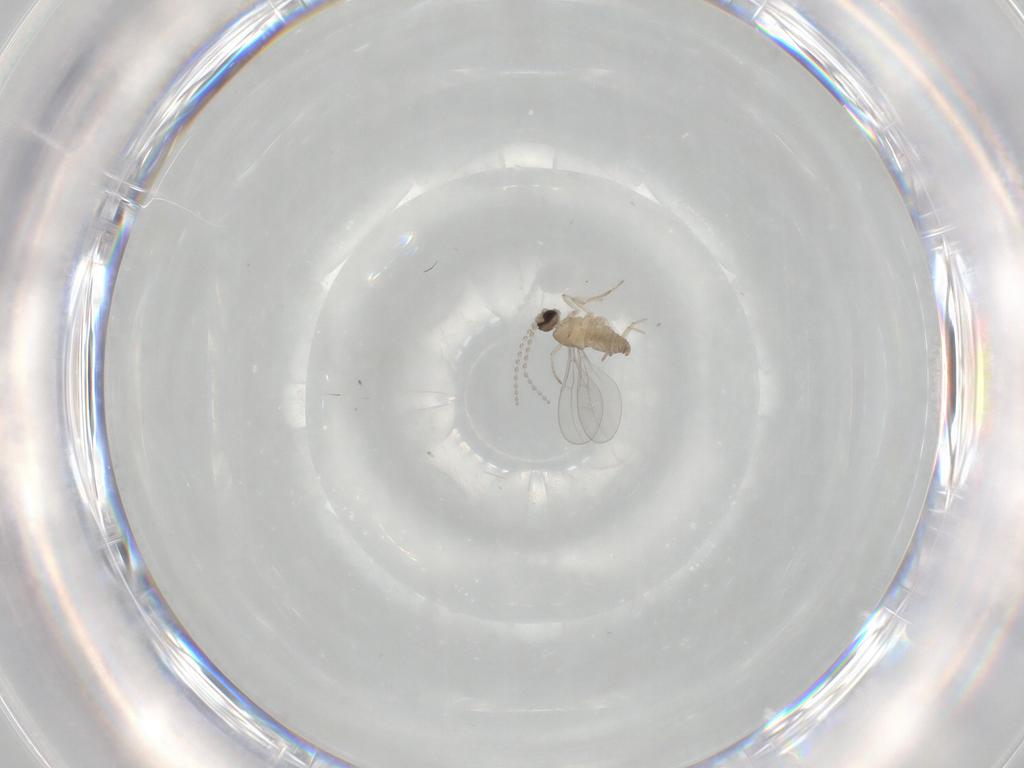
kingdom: Animalia
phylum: Arthropoda
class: Insecta
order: Diptera
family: Cecidomyiidae
